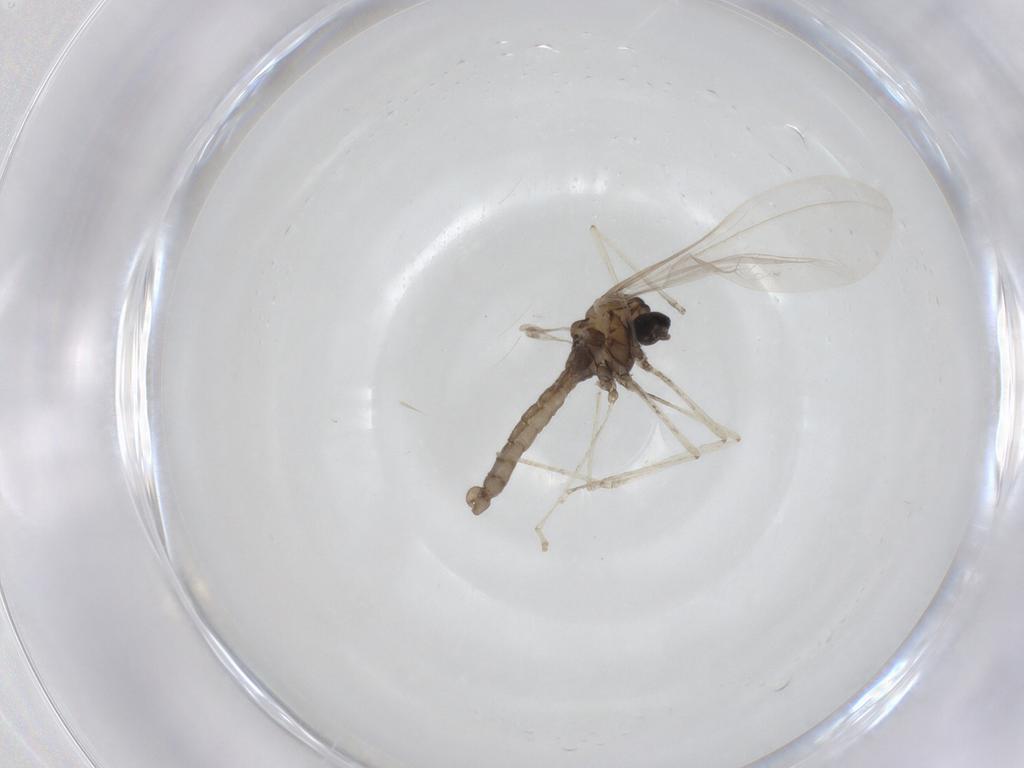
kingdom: Animalia
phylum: Arthropoda
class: Insecta
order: Diptera
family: Cecidomyiidae
